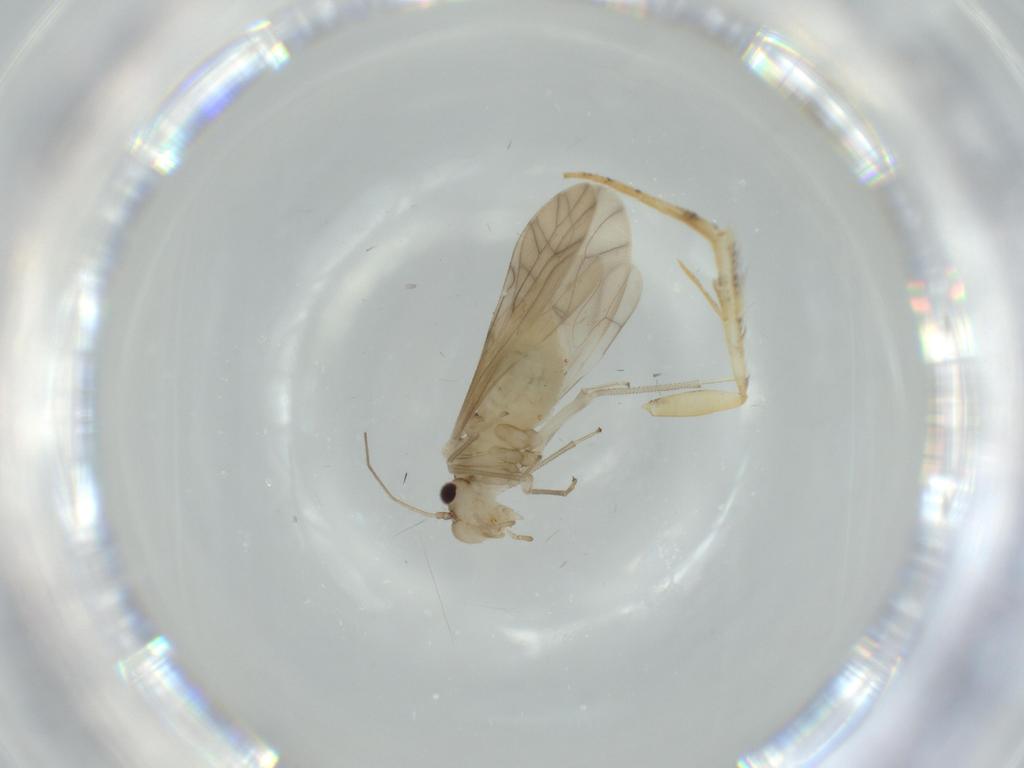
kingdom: Animalia
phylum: Arthropoda
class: Insecta
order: Psocodea
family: Caeciliusidae
